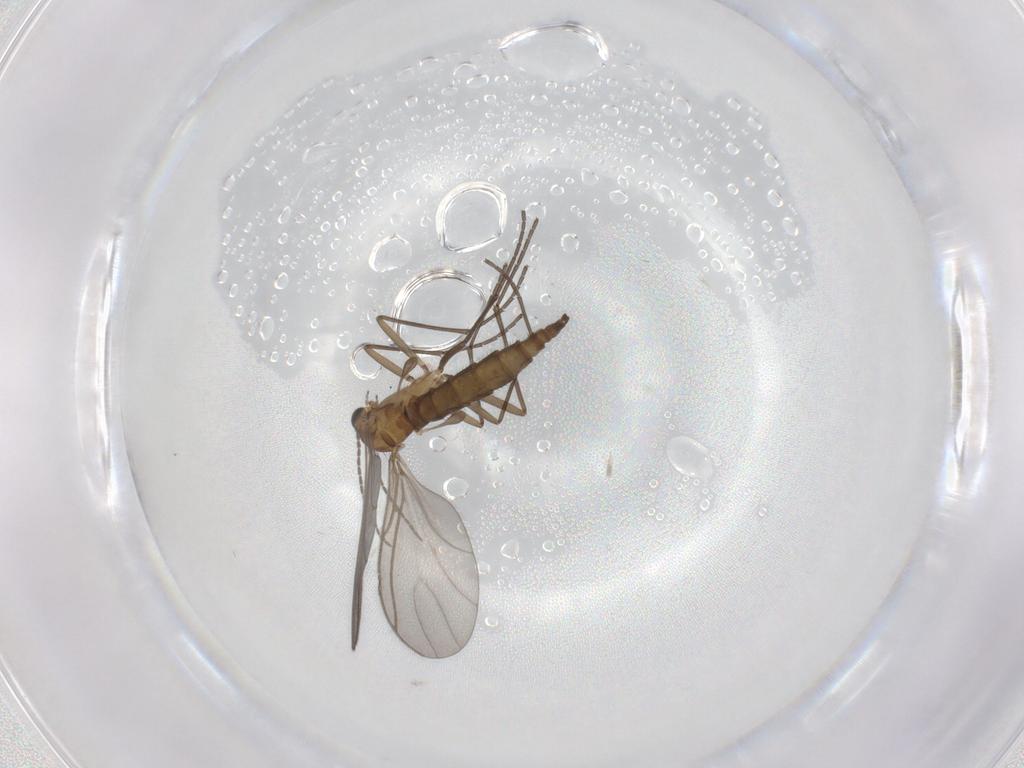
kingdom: Animalia
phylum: Arthropoda
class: Insecta
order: Diptera
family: Sciaridae
